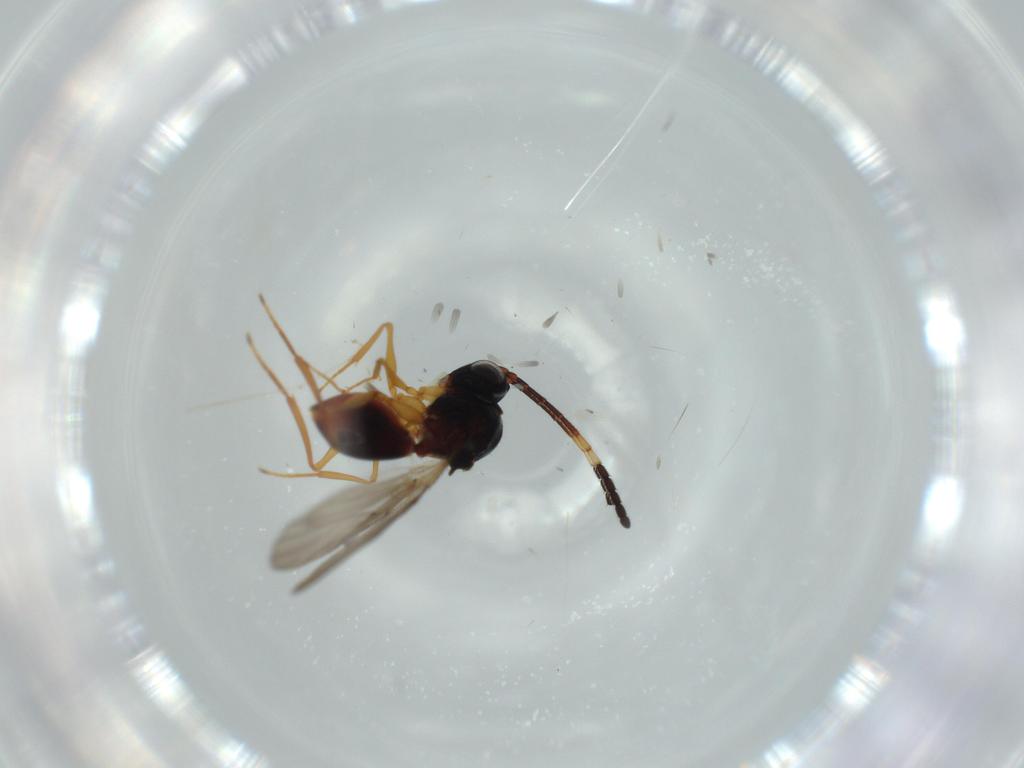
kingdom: Animalia
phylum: Arthropoda
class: Insecta
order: Hymenoptera
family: Figitidae
